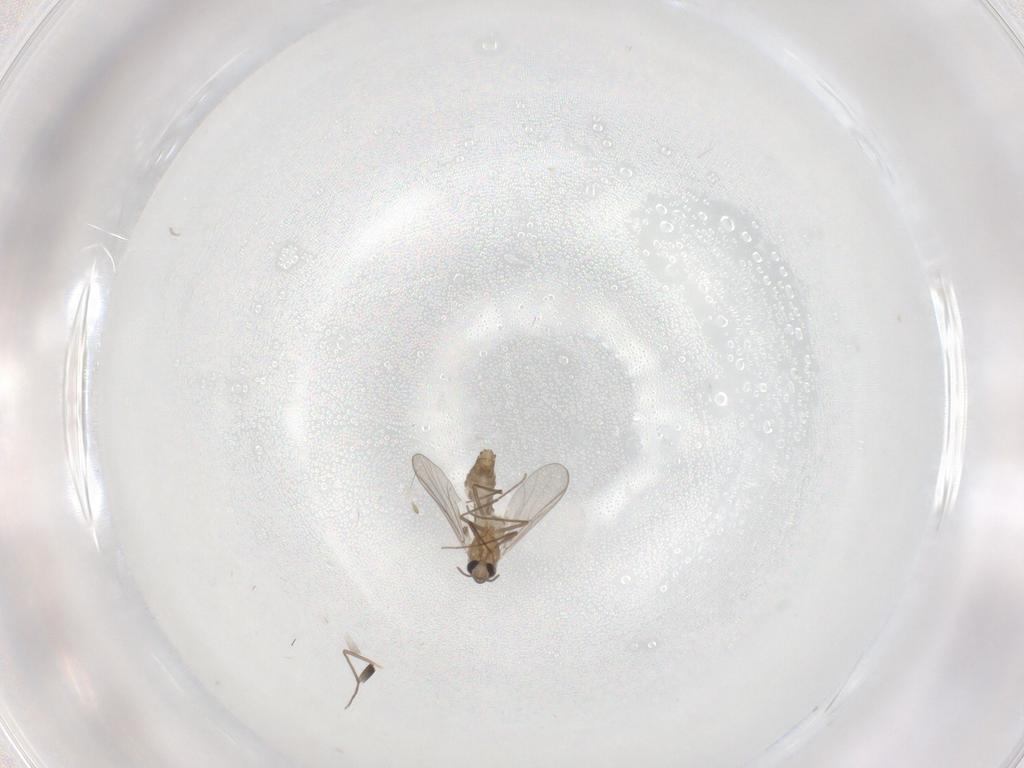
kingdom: Animalia
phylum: Arthropoda
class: Insecta
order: Diptera
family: Chironomidae
